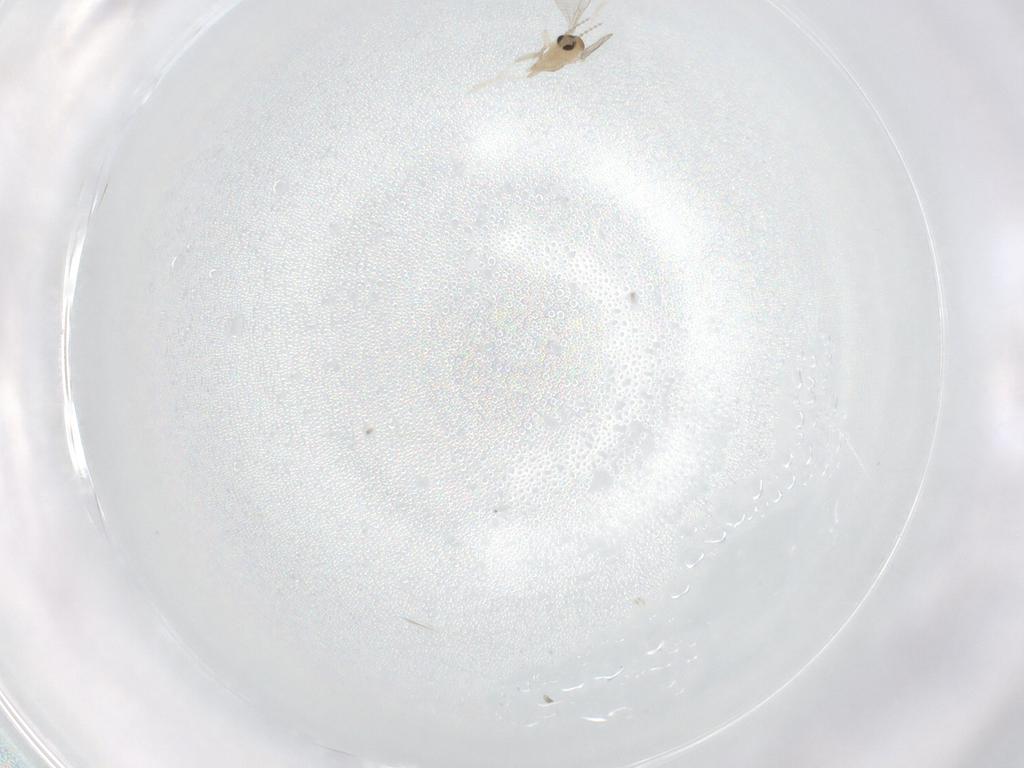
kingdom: Animalia
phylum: Arthropoda
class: Insecta
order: Diptera
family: Cecidomyiidae
